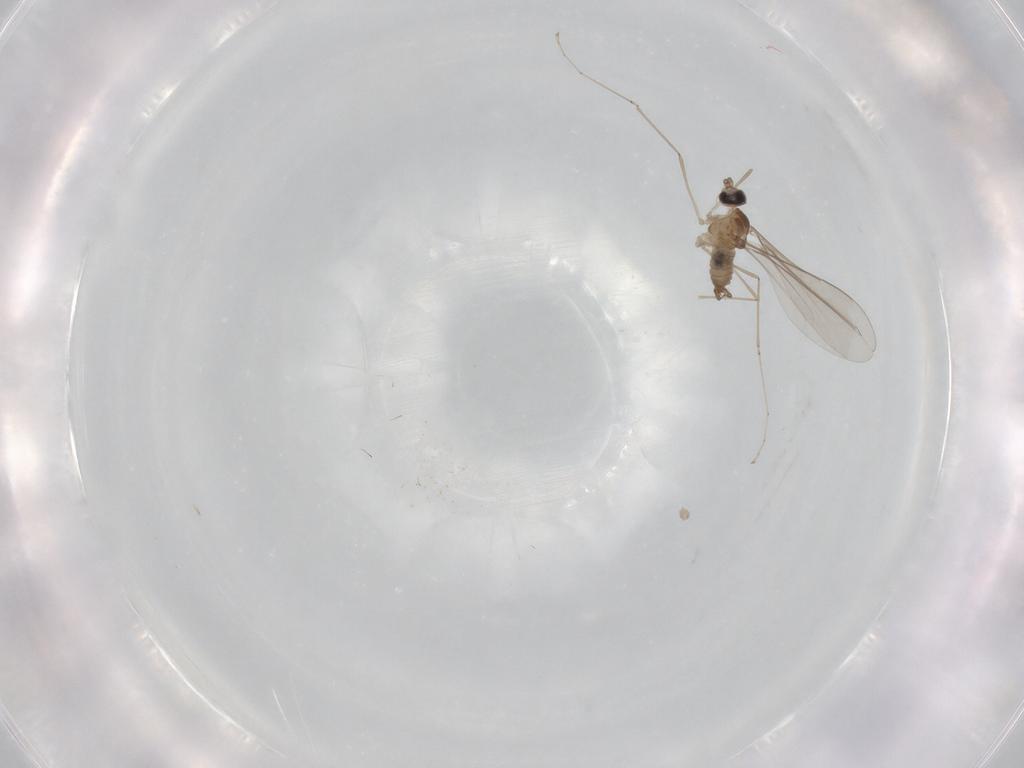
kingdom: Animalia
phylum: Arthropoda
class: Insecta
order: Diptera
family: Cecidomyiidae
